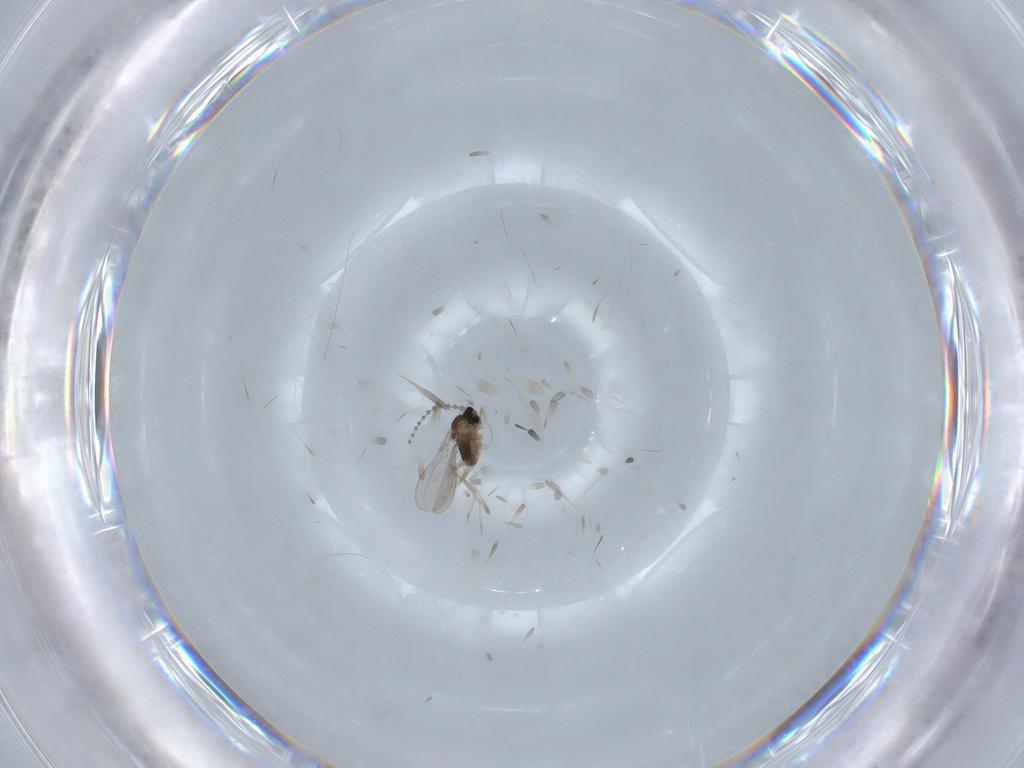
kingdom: Animalia
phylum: Arthropoda
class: Insecta
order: Diptera
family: Cecidomyiidae
